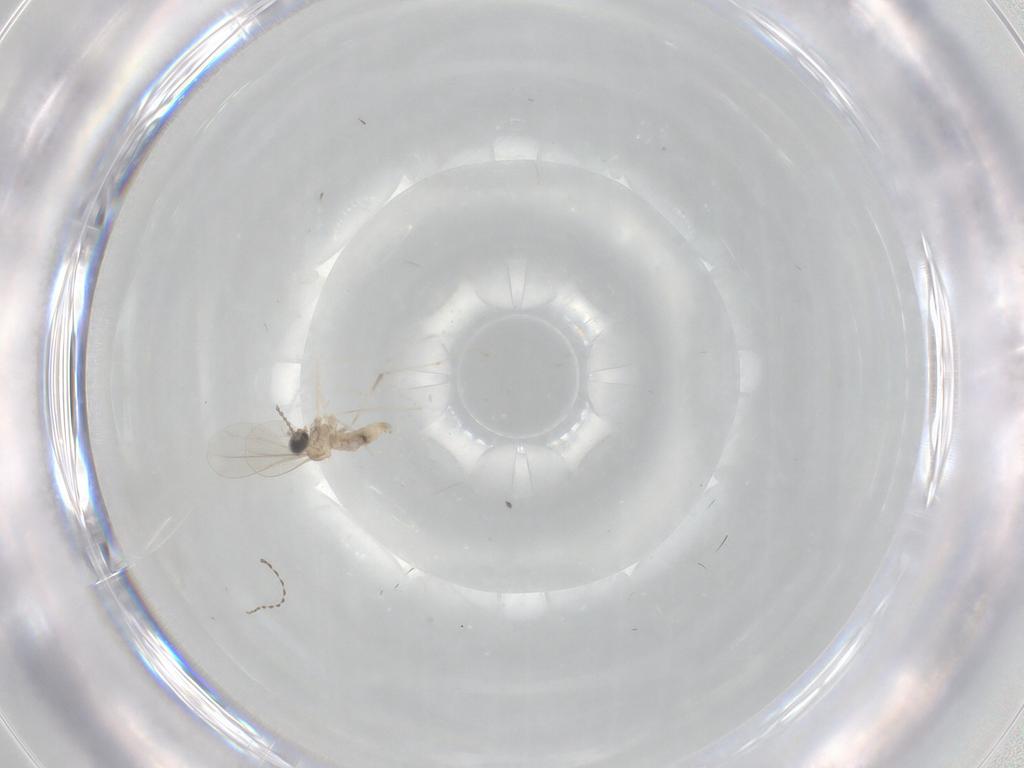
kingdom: Animalia
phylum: Arthropoda
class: Insecta
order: Diptera
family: Cecidomyiidae
